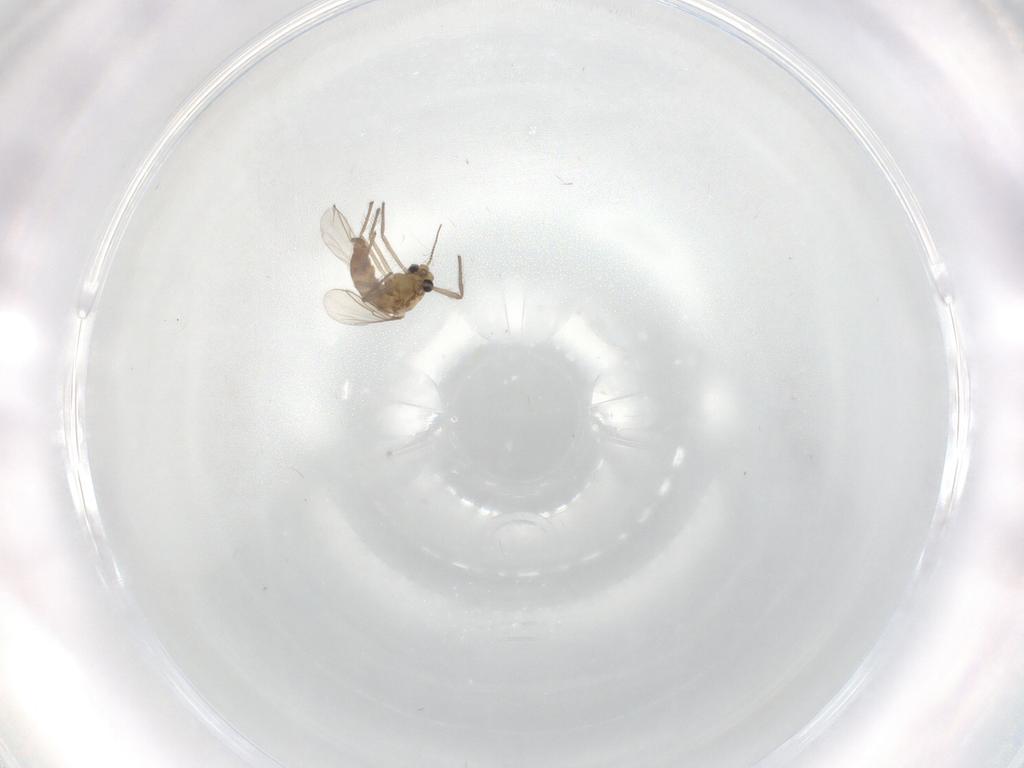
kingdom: Animalia
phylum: Arthropoda
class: Insecta
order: Diptera
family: Chironomidae
